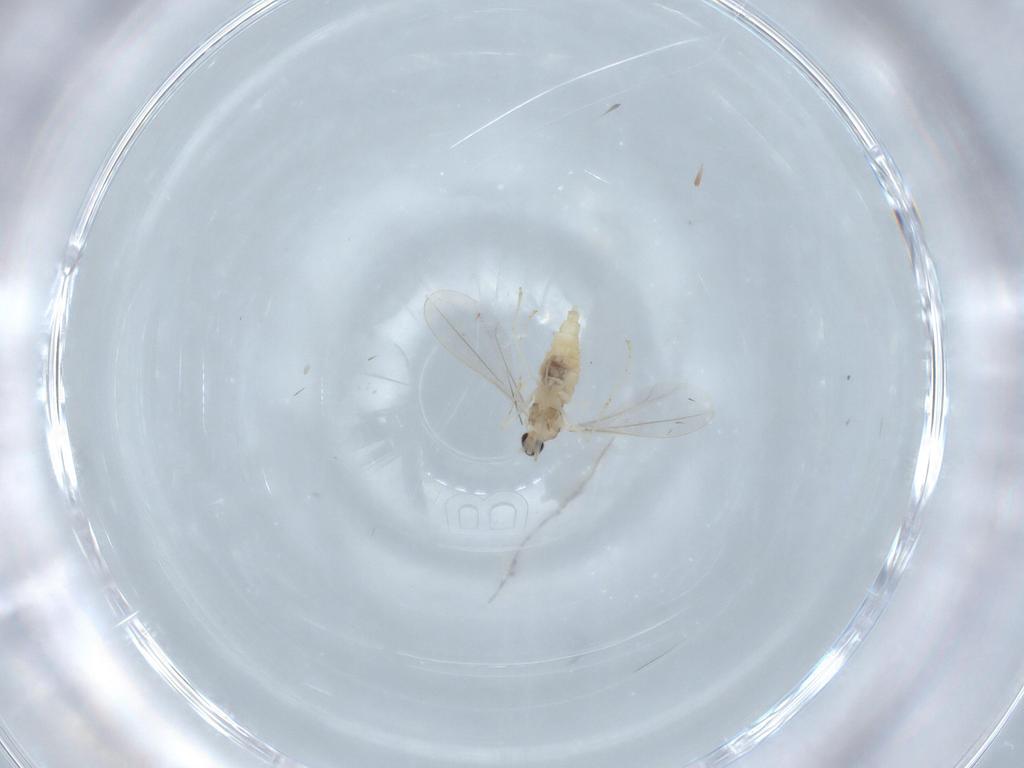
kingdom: Animalia
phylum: Arthropoda
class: Insecta
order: Diptera
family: Cecidomyiidae
